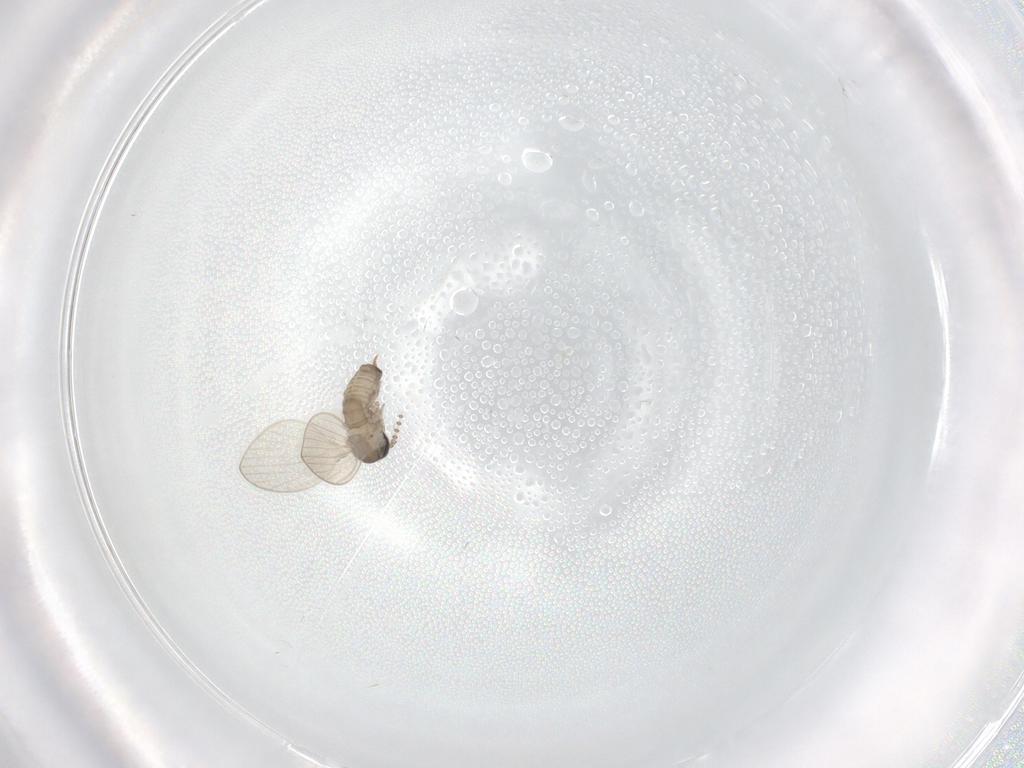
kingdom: Animalia
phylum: Arthropoda
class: Insecta
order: Diptera
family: Psychodidae
